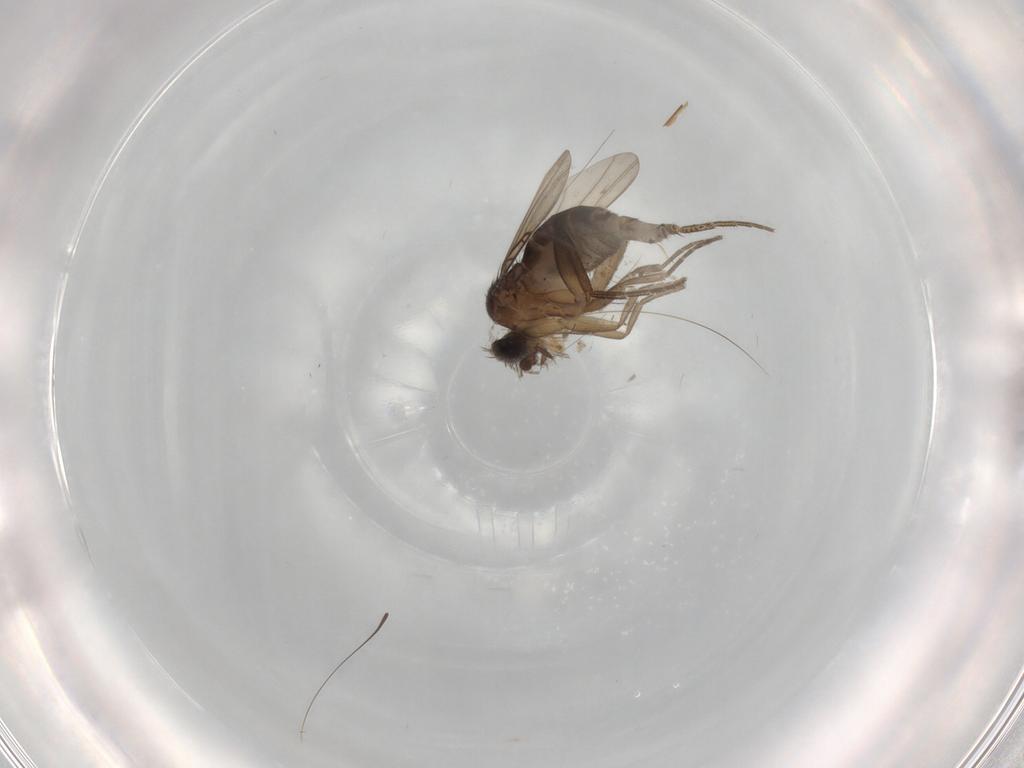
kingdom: Animalia
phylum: Arthropoda
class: Insecta
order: Diptera
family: Phoridae
